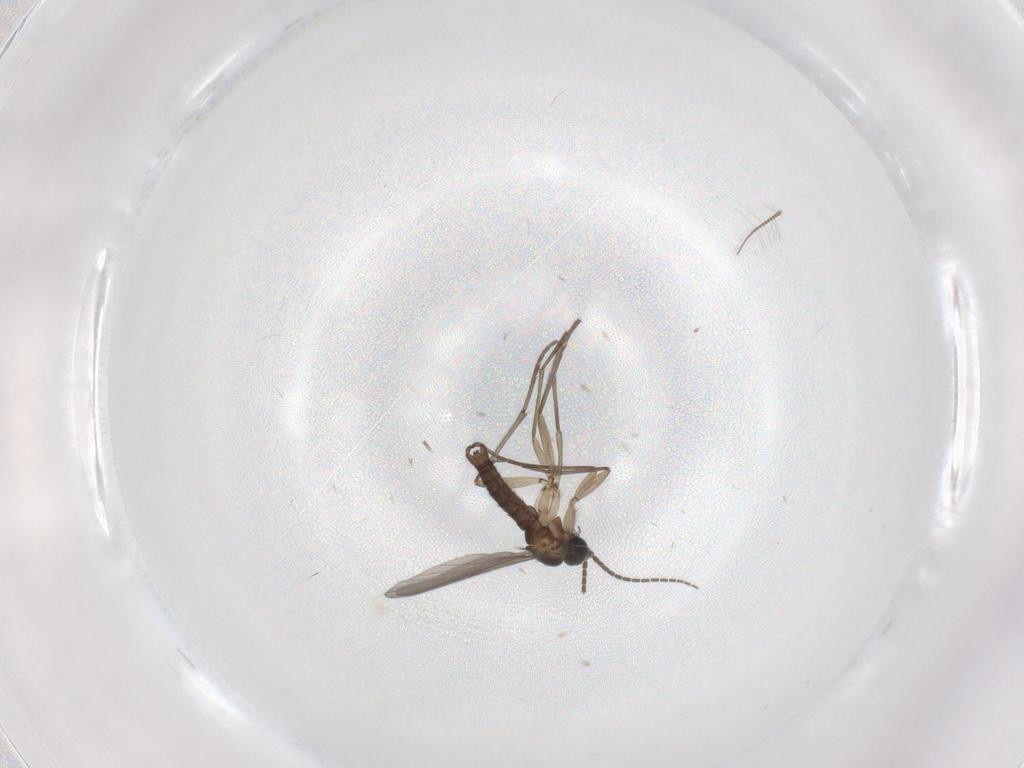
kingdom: Animalia
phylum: Arthropoda
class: Insecta
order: Diptera
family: Sciaridae
